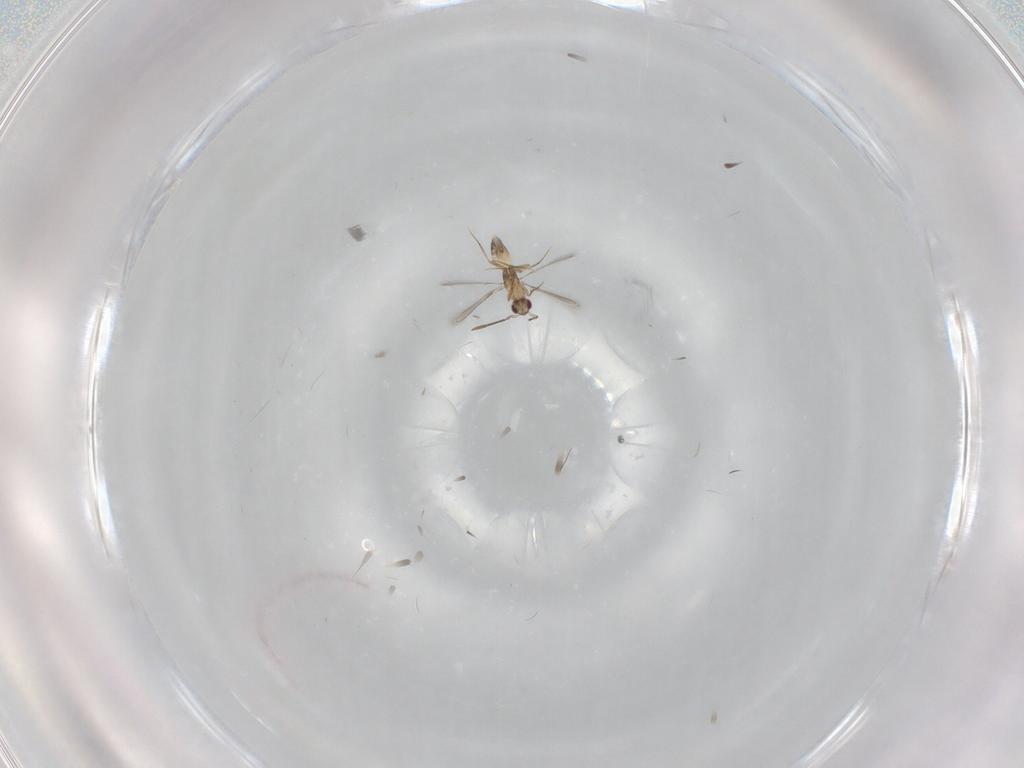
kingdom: Animalia
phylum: Arthropoda
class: Insecta
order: Hymenoptera
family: Mymaridae
